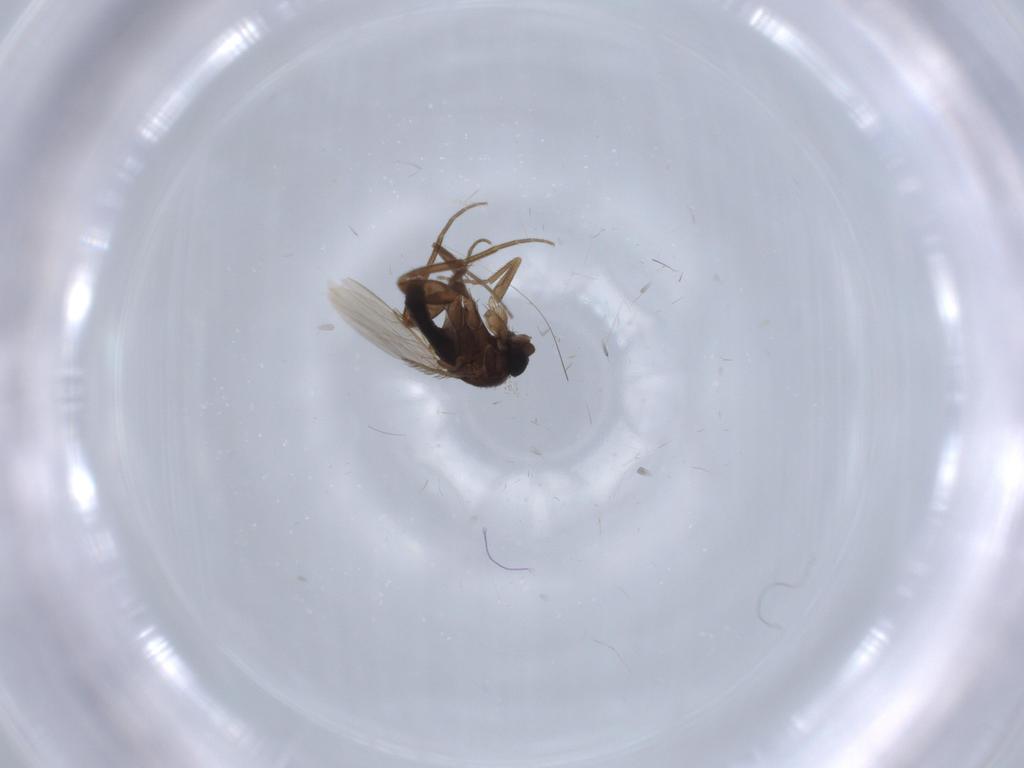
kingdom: Animalia
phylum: Arthropoda
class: Insecta
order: Diptera
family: Phoridae
